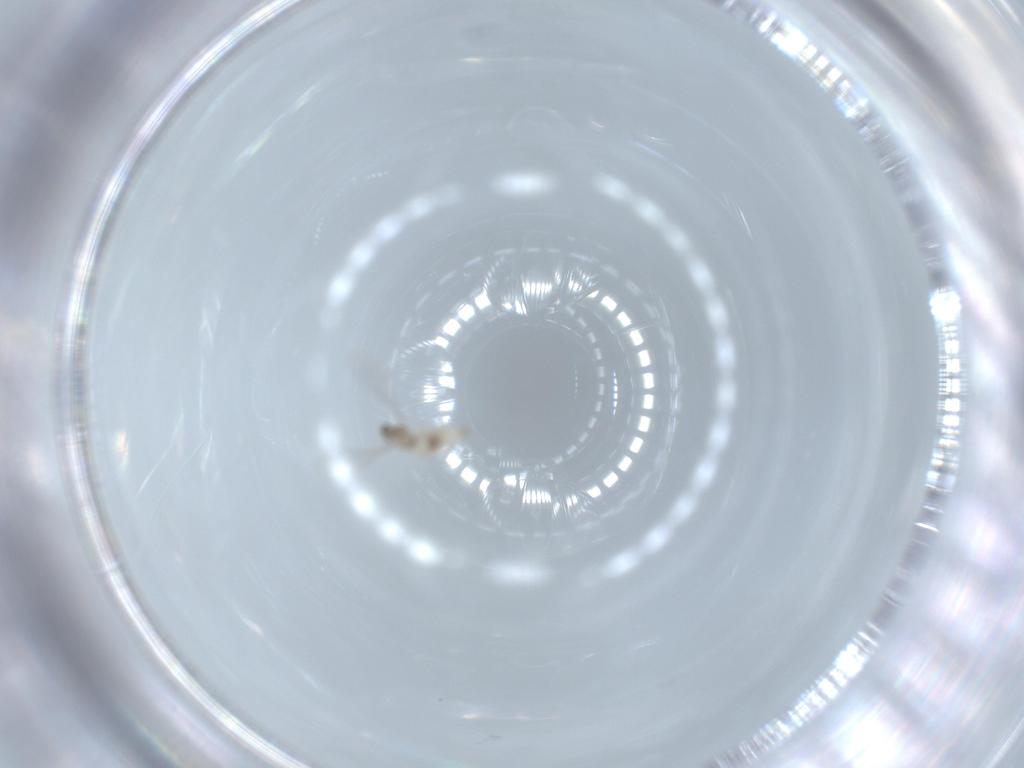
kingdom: Animalia
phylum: Arthropoda
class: Insecta
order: Diptera
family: Cecidomyiidae
